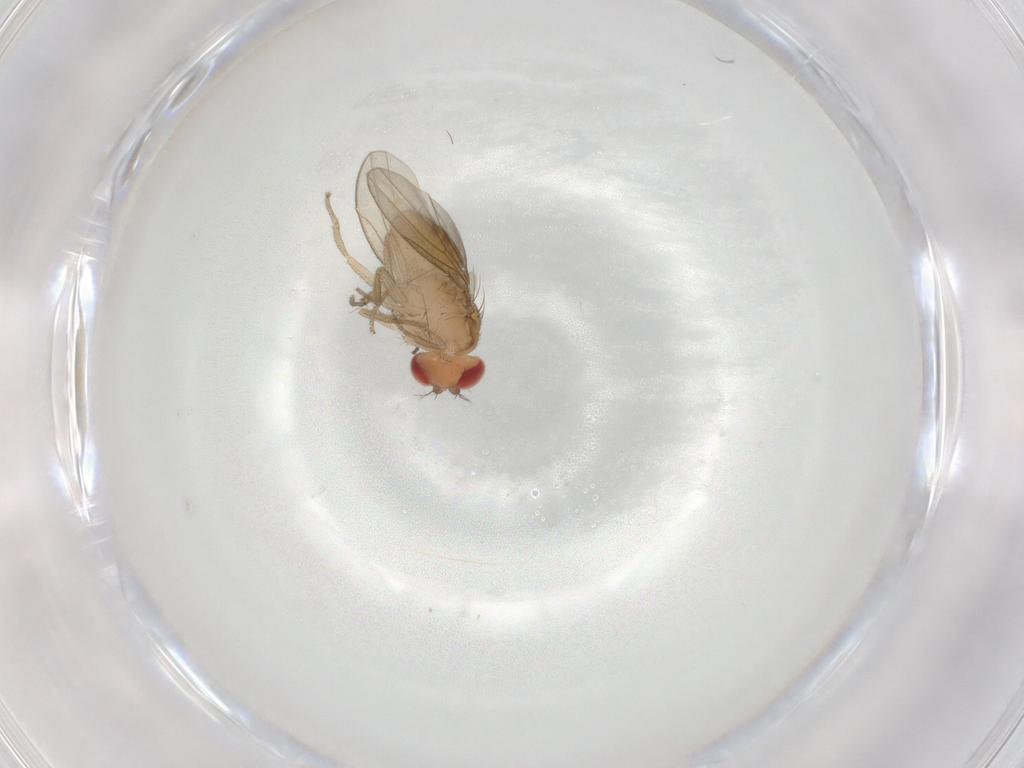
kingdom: Animalia
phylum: Arthropoda
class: Insecta
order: Diptera
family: Drosophilidae
